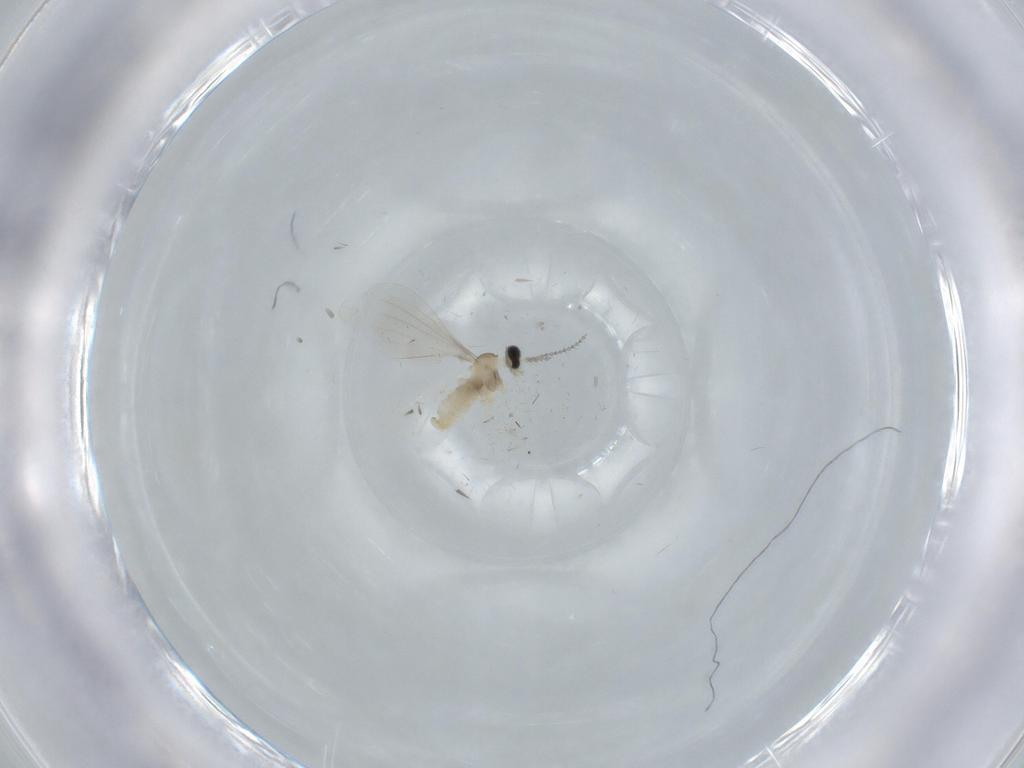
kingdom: Animalia
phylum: Arthropoda
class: Insecta
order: Diptera
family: Cecidomyiidae
